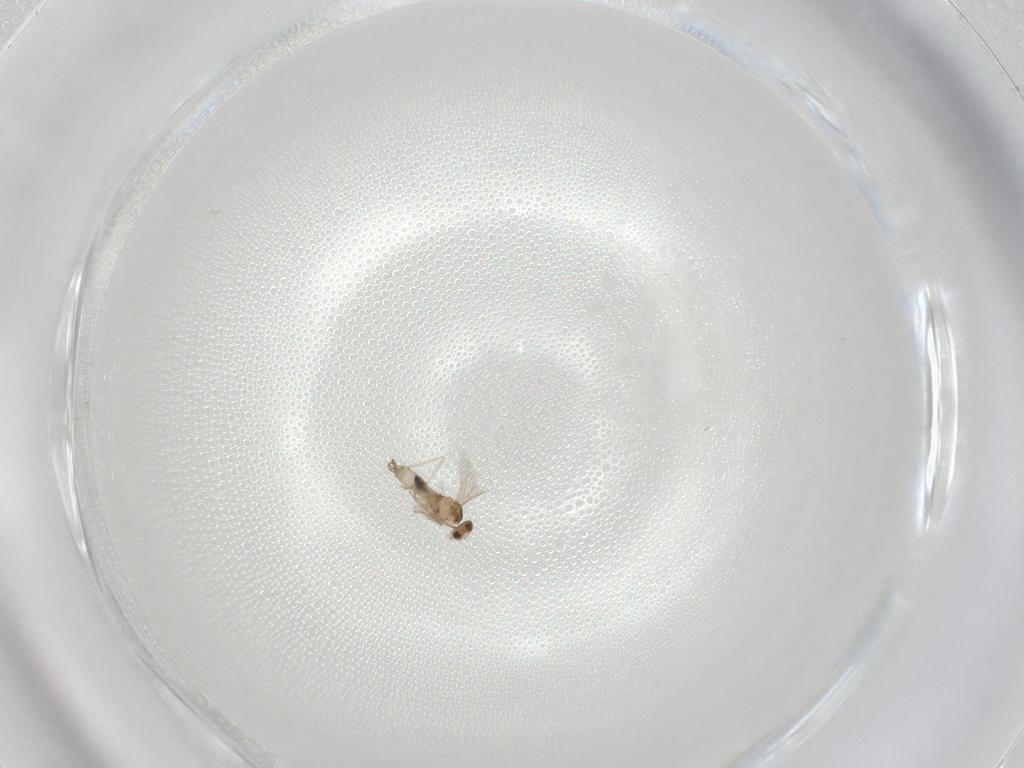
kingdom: Animalia
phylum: Arthropoda
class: Insecta
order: Diptera
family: Cecidomyiidae
